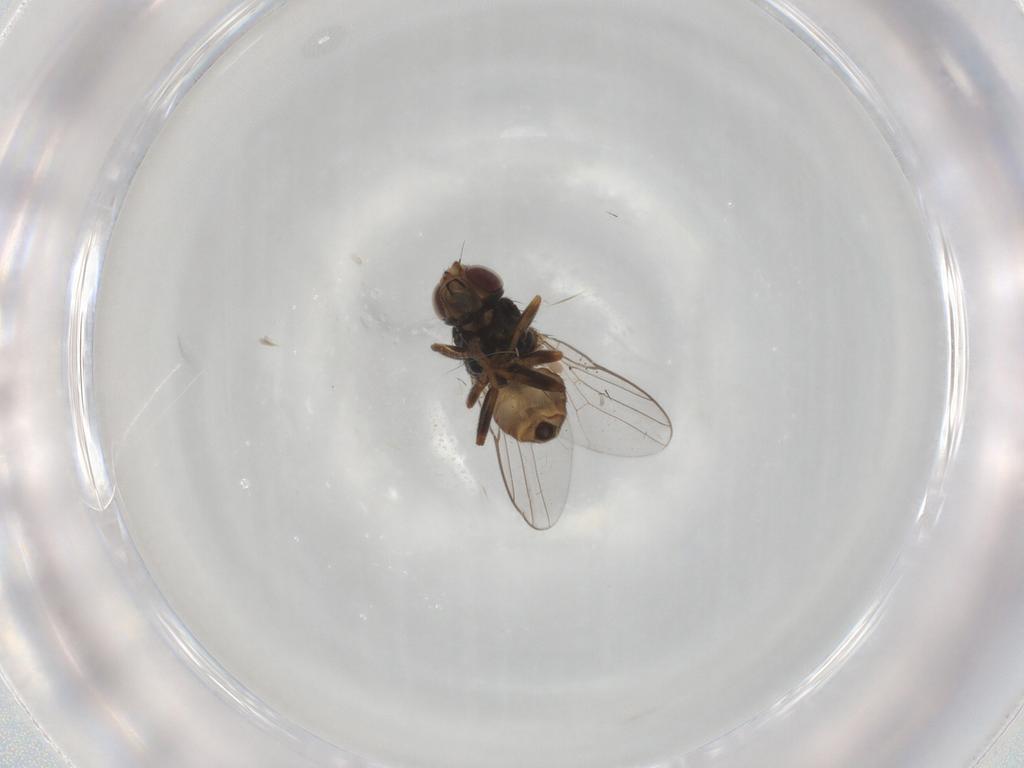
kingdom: Animalia
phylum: Arthropoda
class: Insecta
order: Diptera
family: Chloropidae
